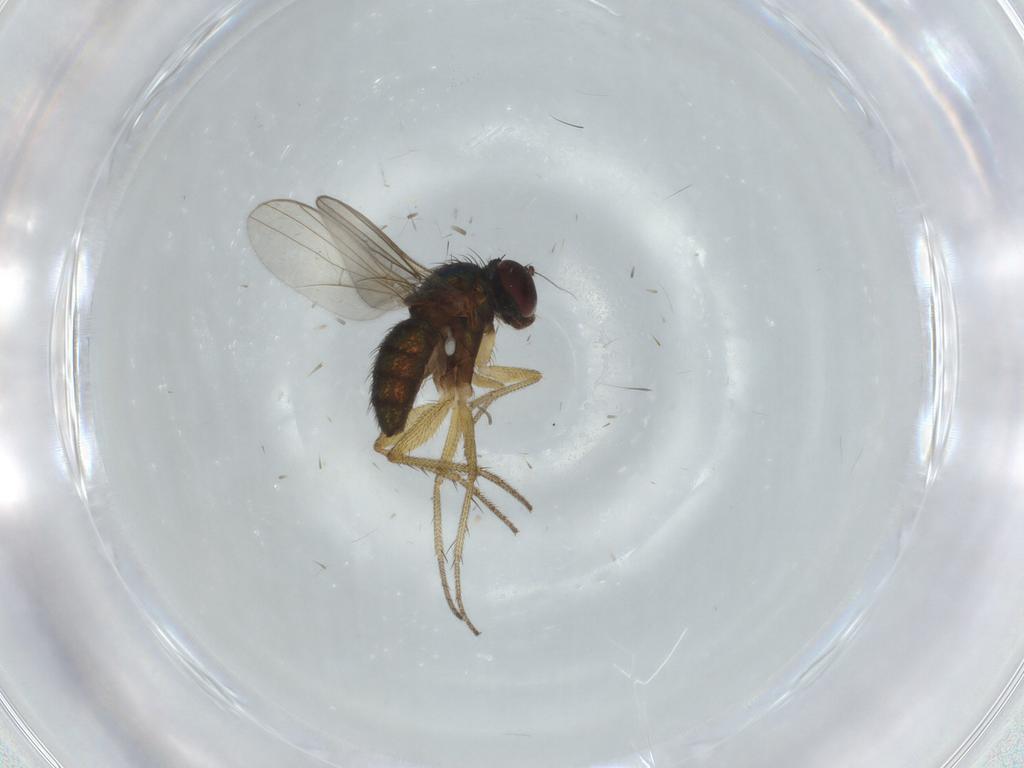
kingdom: Animalia
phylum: Arthropoda
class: Insecta
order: Diptera
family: Dolichopodidae
